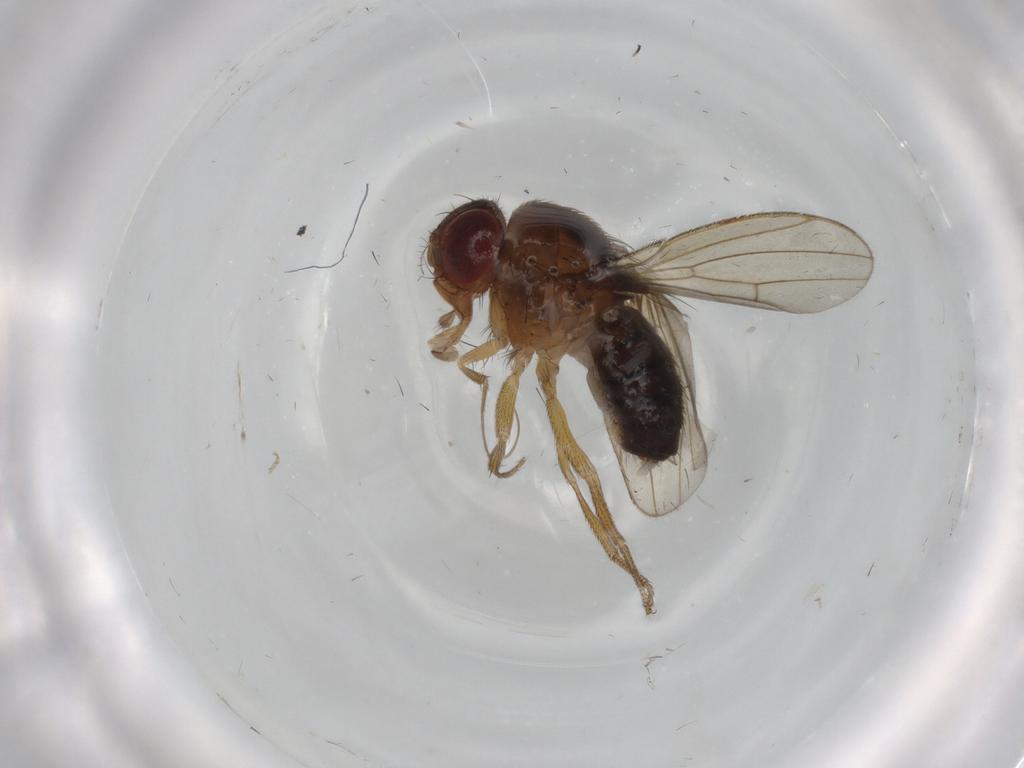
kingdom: Animalia
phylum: Arthropoda
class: Insecta
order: Diptera
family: Drosophilidae
